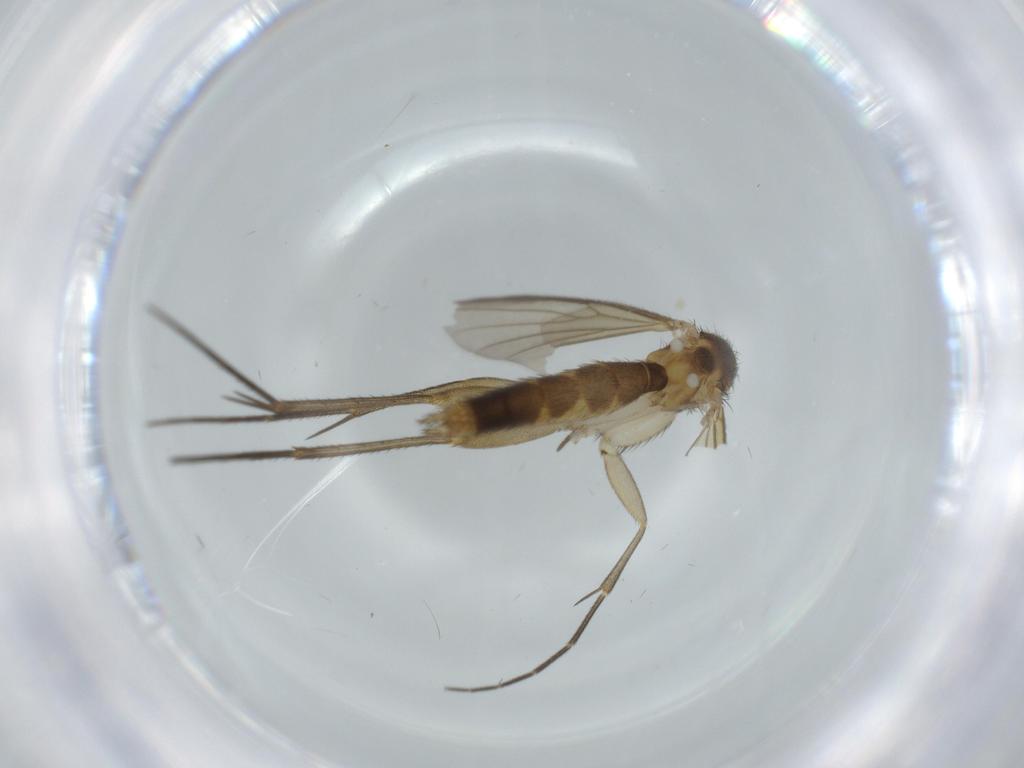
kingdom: Animalia
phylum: Arthropoda
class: Insecta
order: Diptera
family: Mycetophilidae
